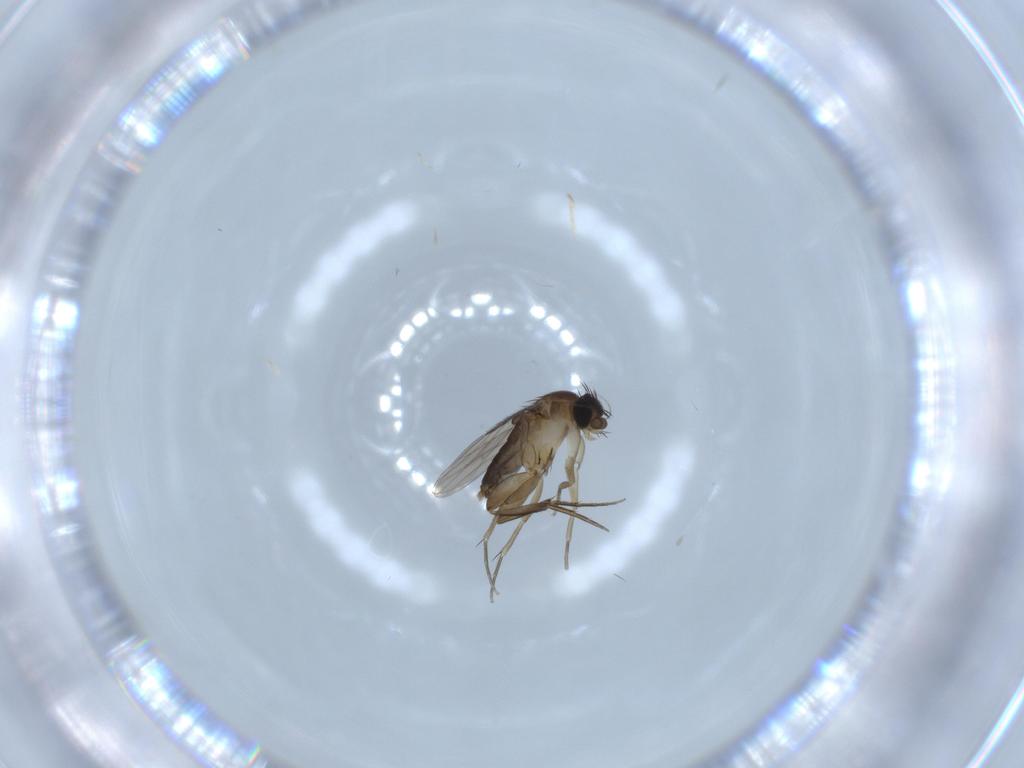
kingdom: Animalia
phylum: Arthropoda
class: Insecta
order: Diptera
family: Phoridae
